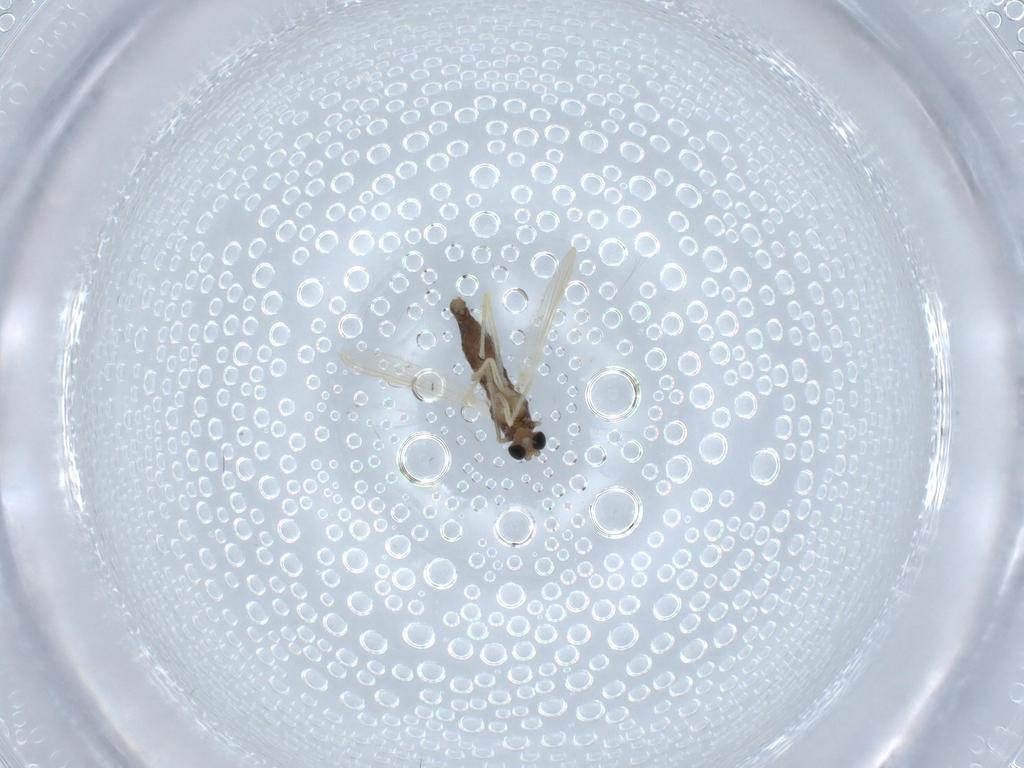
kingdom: Animalia
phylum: Arthropoda
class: Insecta
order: Diptera
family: Chironomidae
